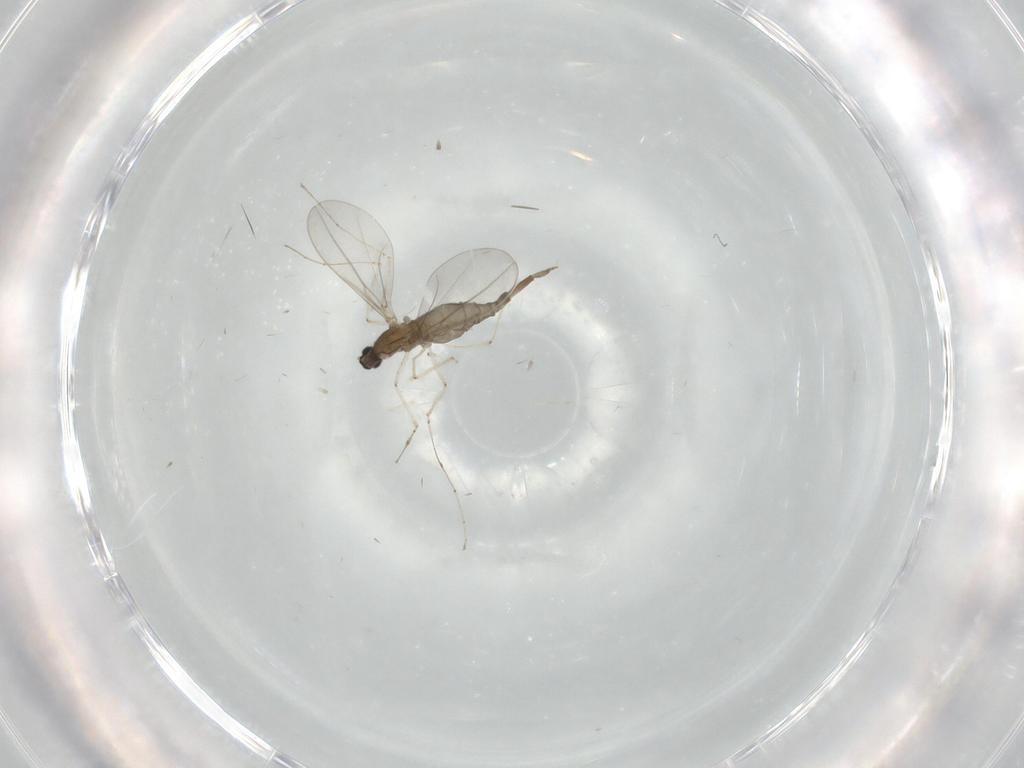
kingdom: Animalia
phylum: Arthropoda
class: Insecta
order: Diptera
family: Cecidomyiidae
